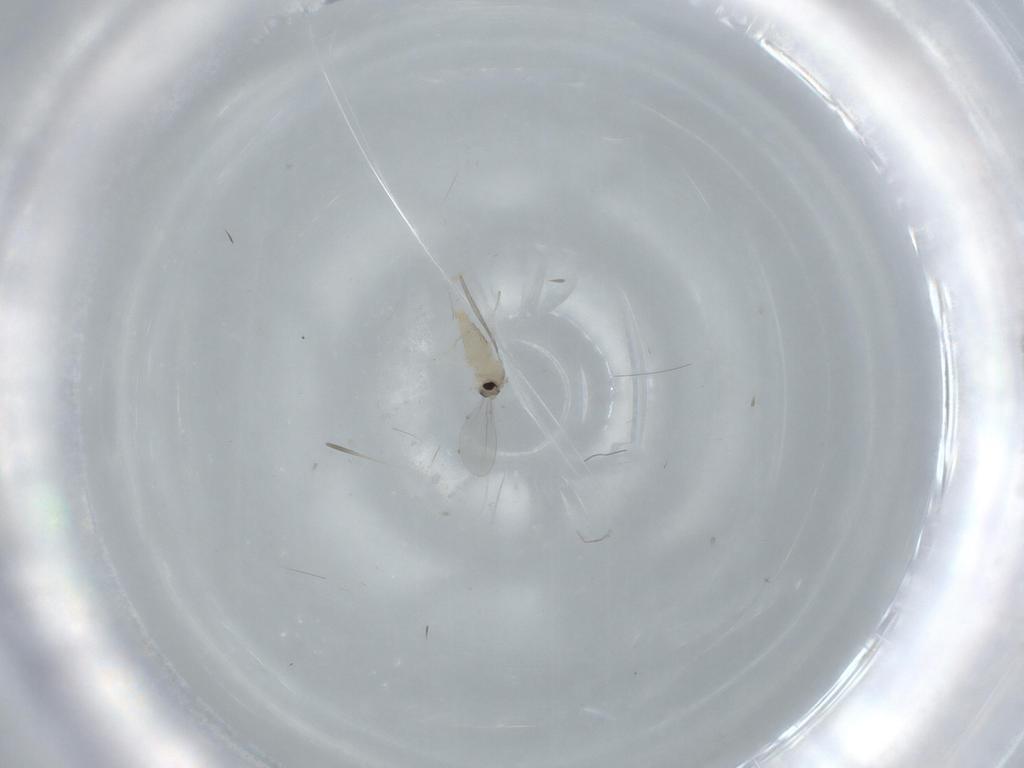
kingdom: Animalia
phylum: Arthropoda
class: Insecta
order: Diptera
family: Cecidomyiidae
